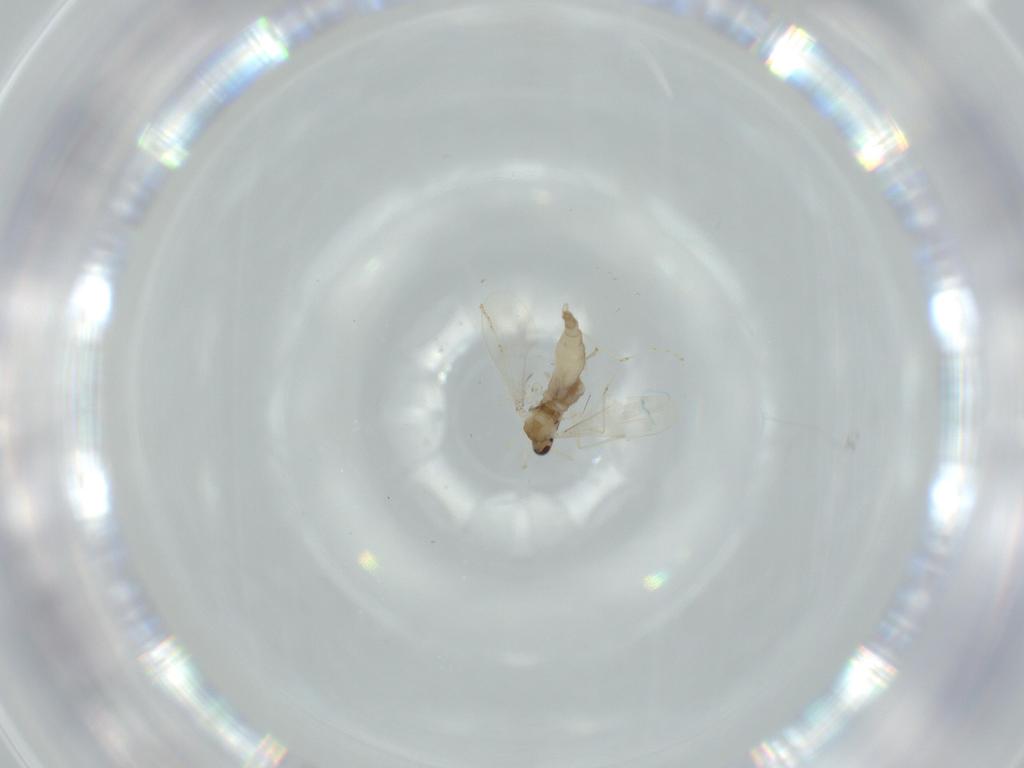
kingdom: Animalia
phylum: Arthropoda
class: Insecta
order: Diptera
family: Cecidomyiidae
